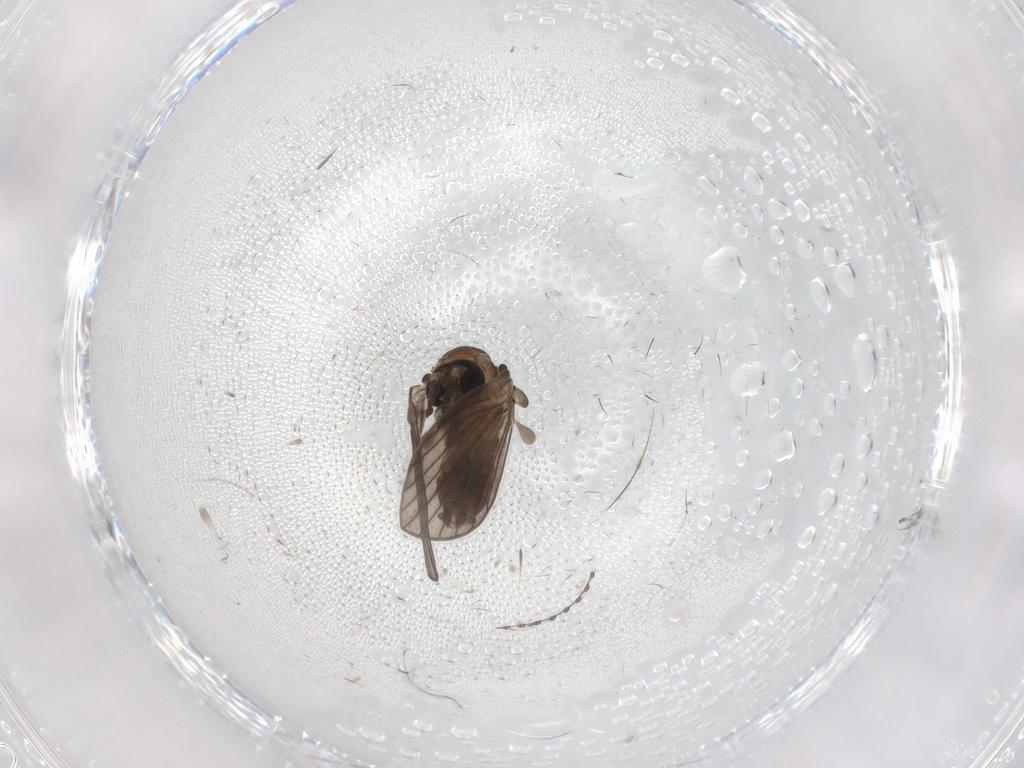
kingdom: Animalia
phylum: Arthropoda
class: Insecta
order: Diptera
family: Psychodidae
